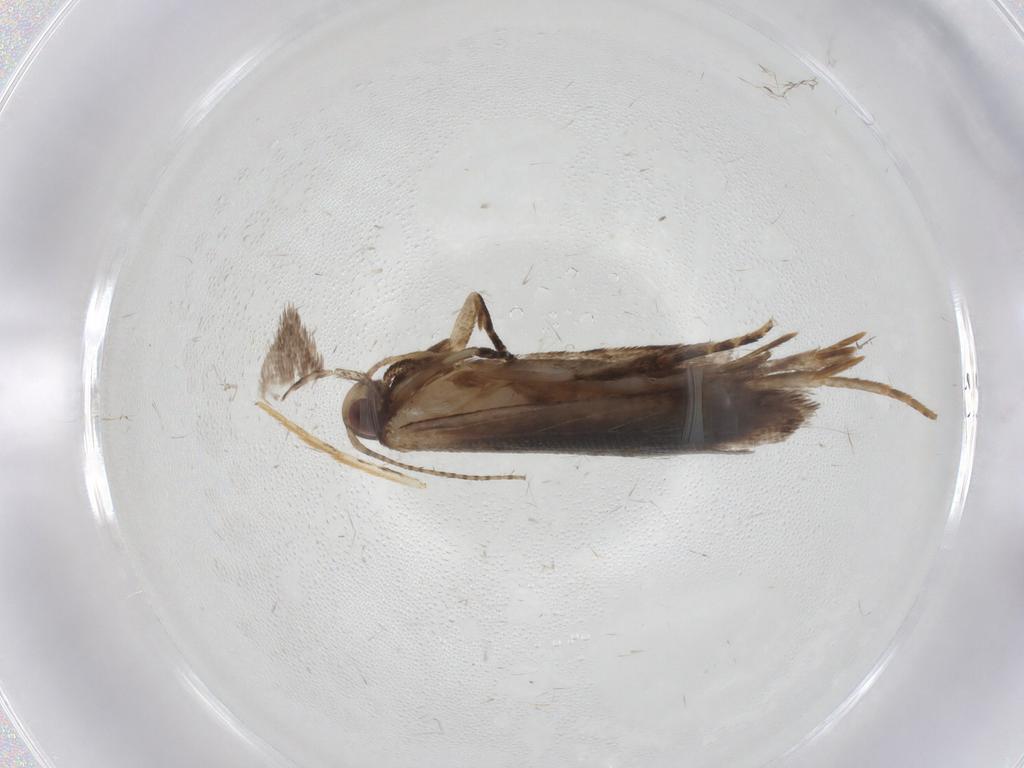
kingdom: Animalia
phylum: Arthropoda
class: Insecta
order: Lepidoptera
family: Gelechiidae
